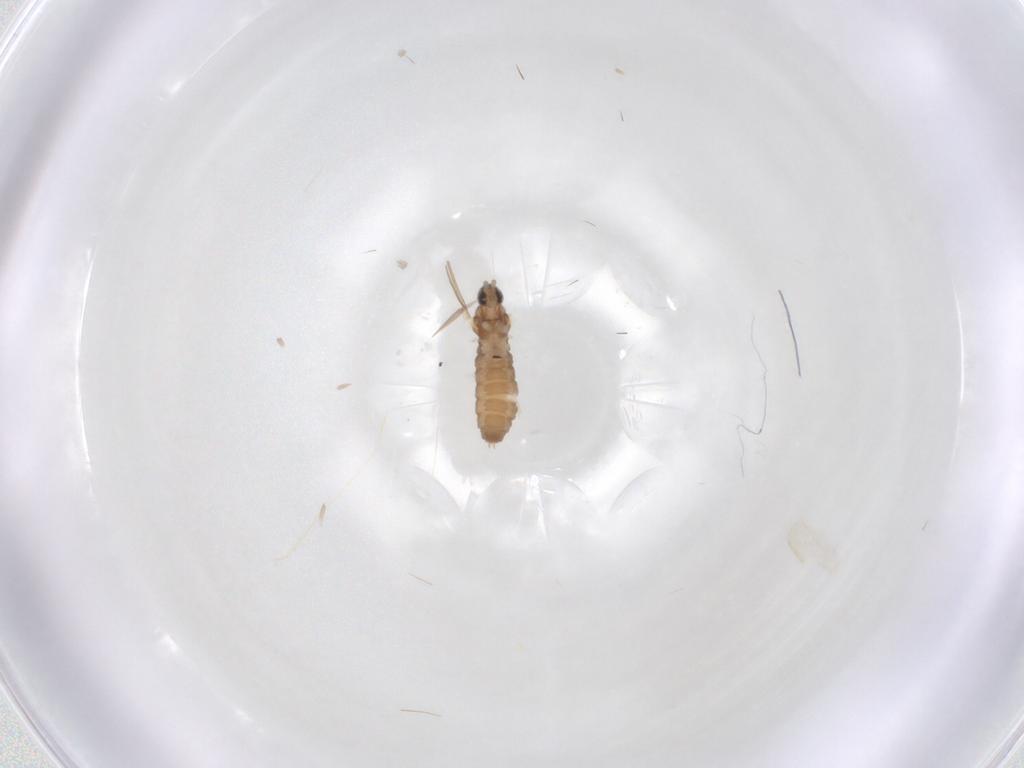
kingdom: Animalia
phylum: Arthropoda
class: Insecta
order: Diptera
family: Cecidomyiidae
